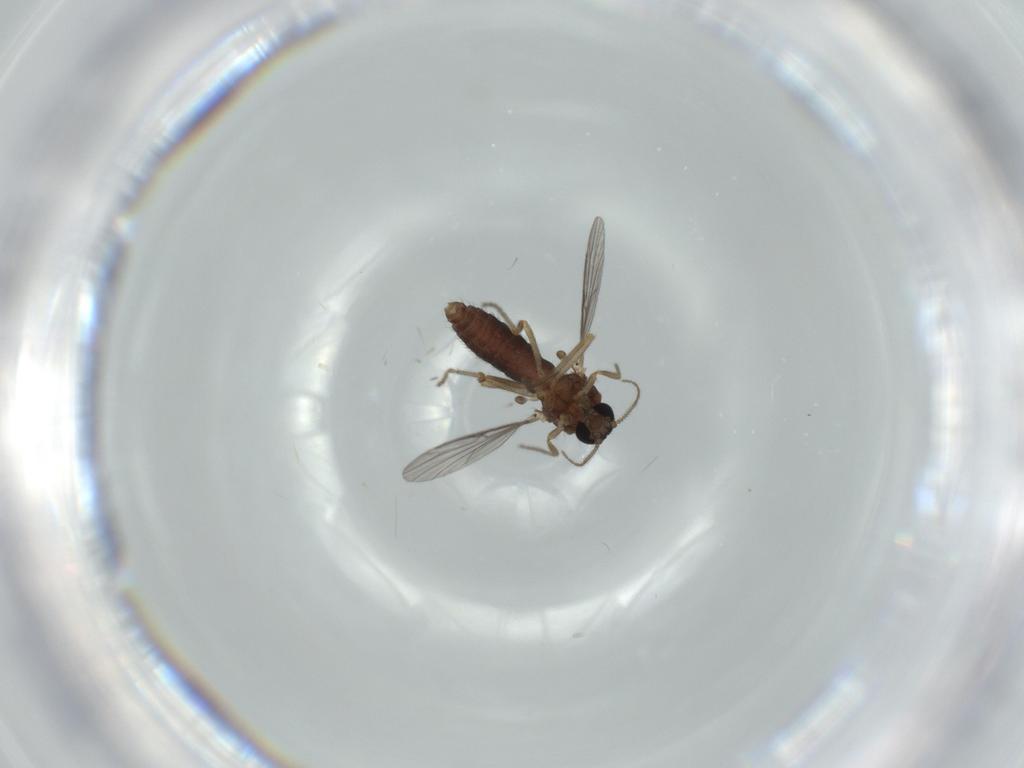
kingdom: Animalia
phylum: Arthropoda
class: Insecta
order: Diptera
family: Ceratopogonidae
